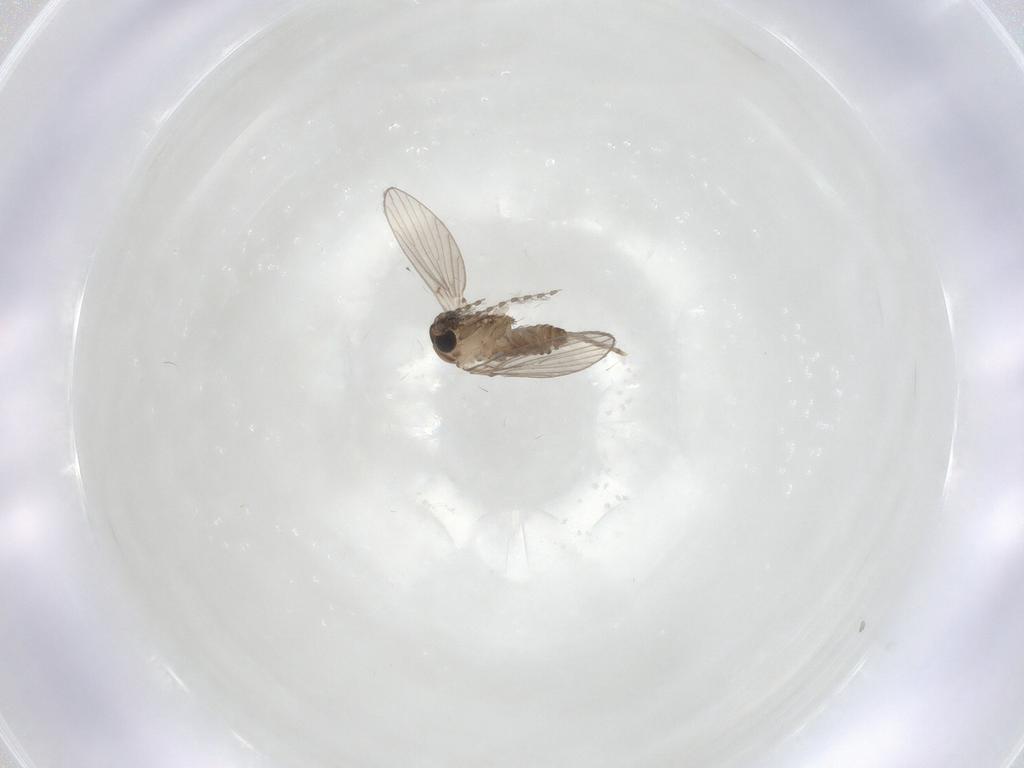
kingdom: Animalia
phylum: Arthropoda
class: Insecta
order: Diptera
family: Psychodidae
